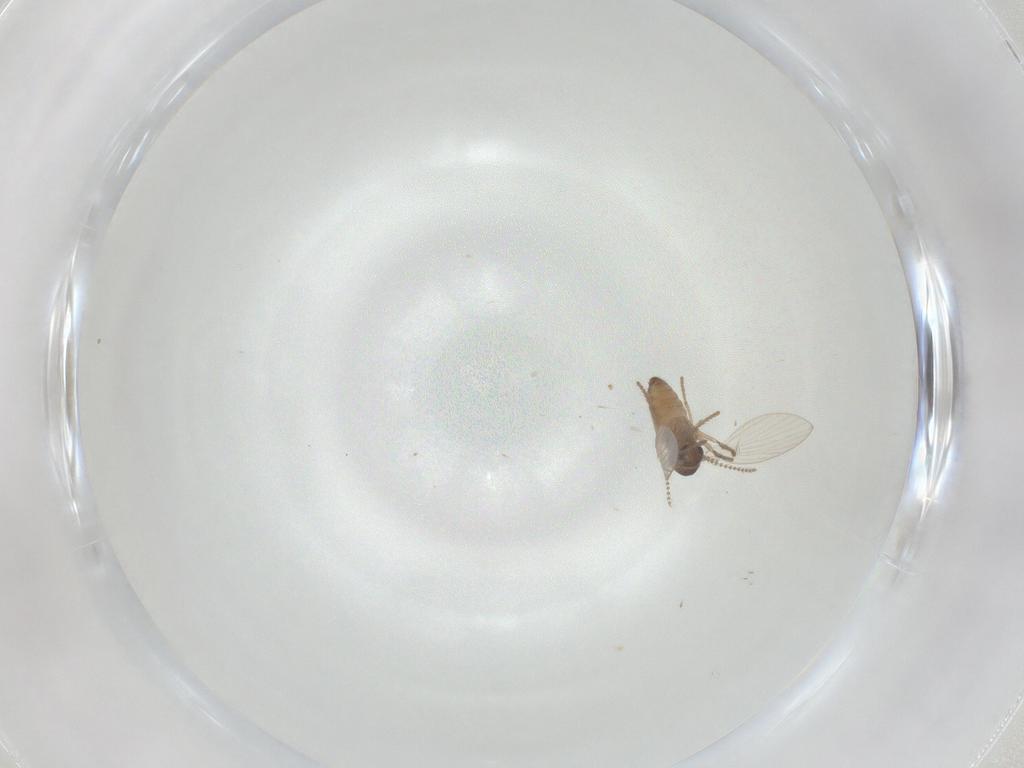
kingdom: Animalia
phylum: Arthropoda
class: Insecta
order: Diptera
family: Psychodidae
